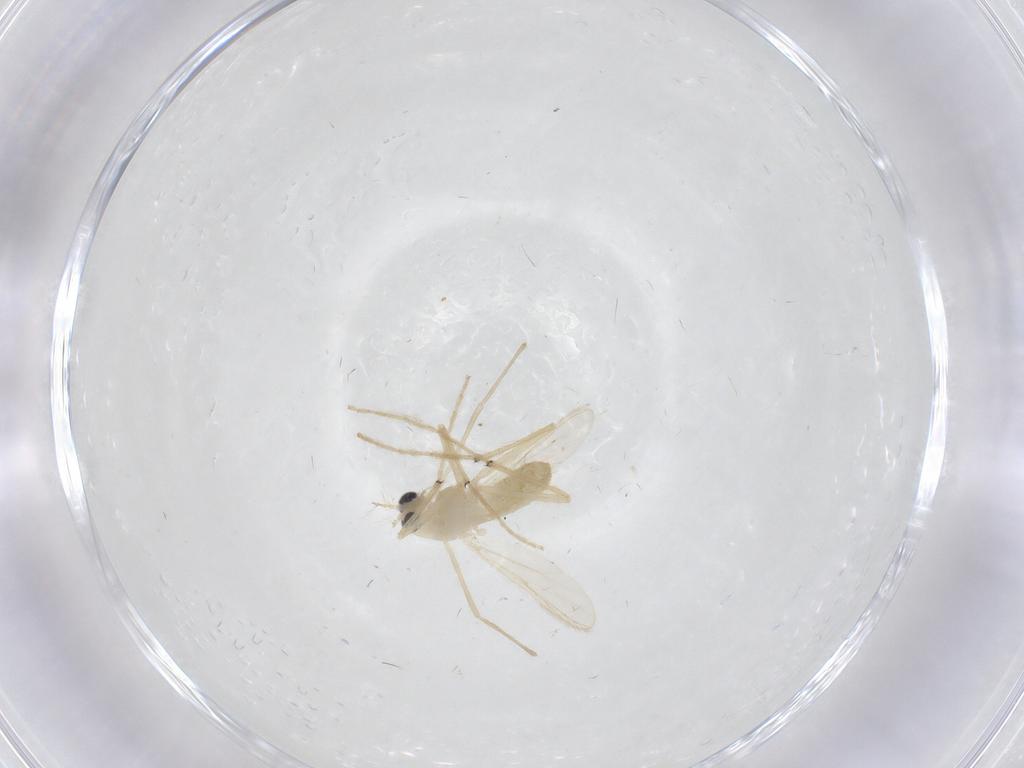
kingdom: Animalia
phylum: Arthropoda
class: Insecta
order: Diptera
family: Chironomidae
